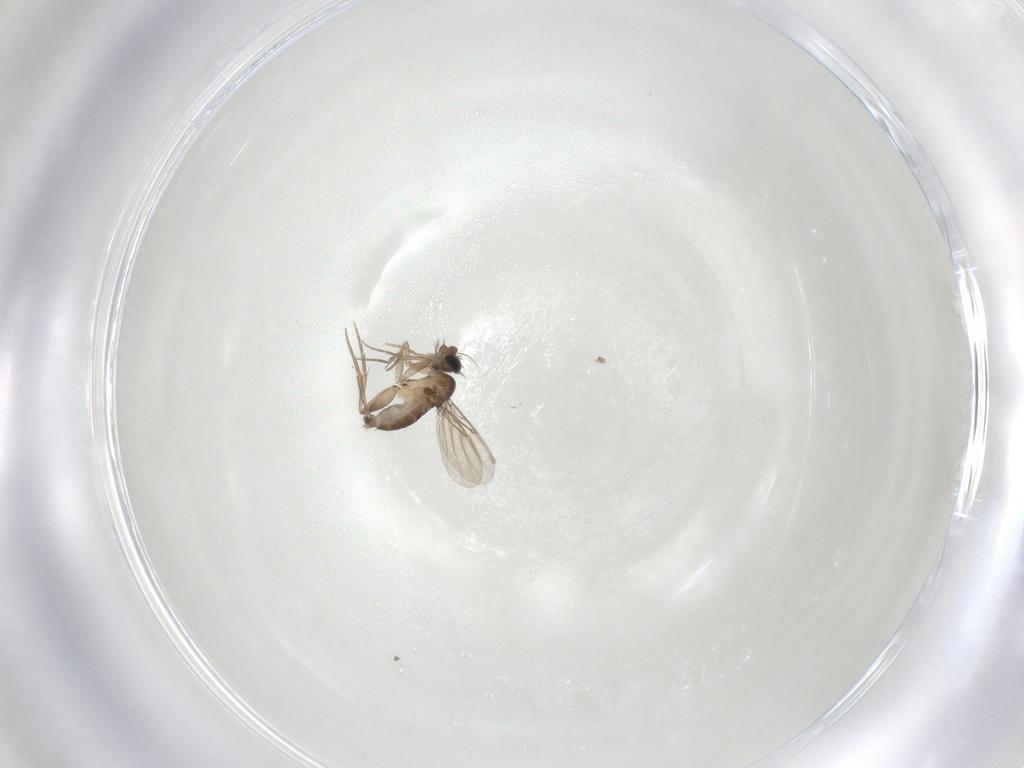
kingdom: Animalia
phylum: Arthropoda
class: Insecta
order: Diptera
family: Phoridae
